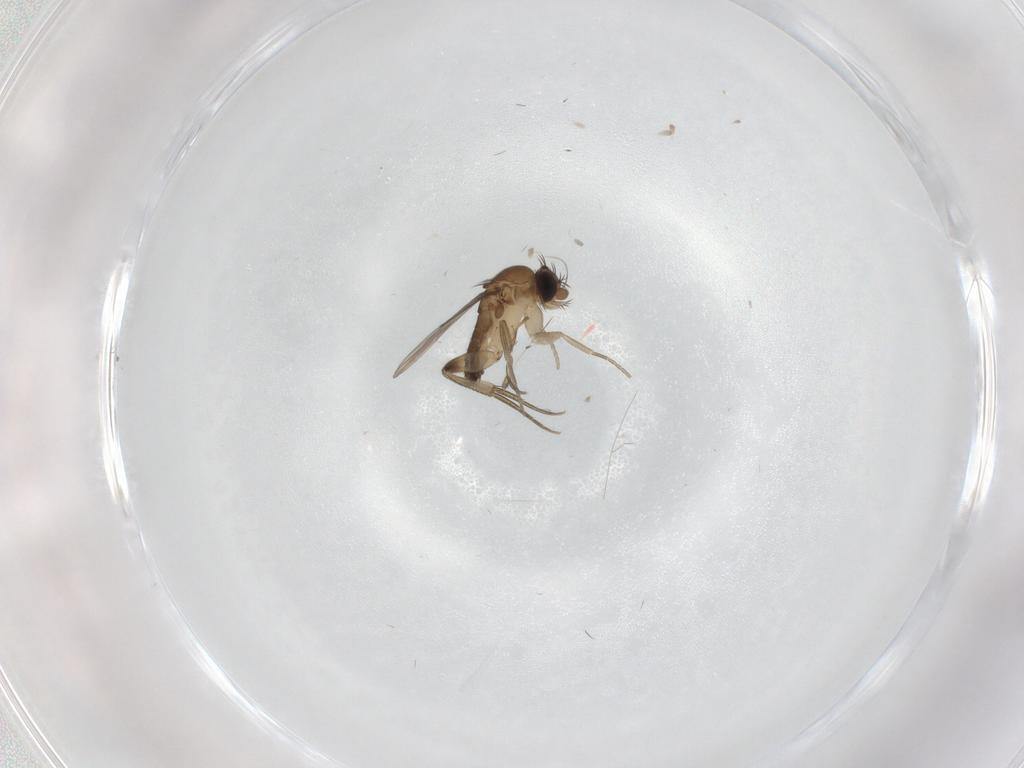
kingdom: Animalia
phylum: Arthropoda
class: Insecta
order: Diptera
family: Phoridae
